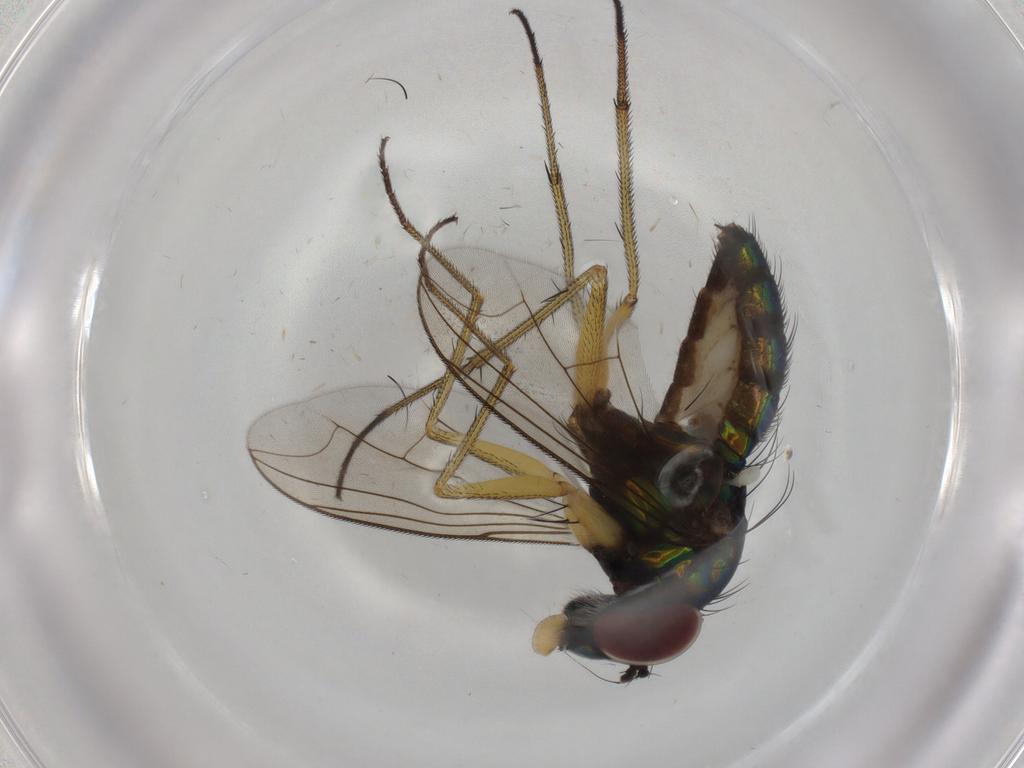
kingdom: Animalia
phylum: Arthropoda
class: Insecta
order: Diptera
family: Dolichopodidae
